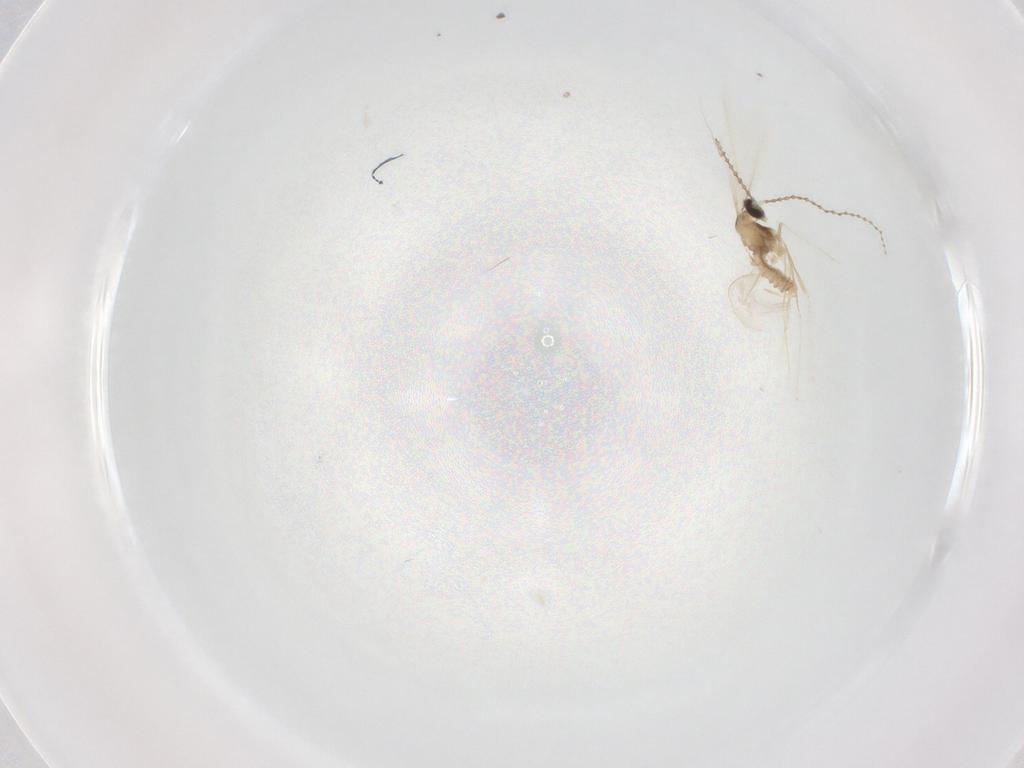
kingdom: Animalia
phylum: Arthropoda
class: Insecta
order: Diptera
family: Cecidomyiidae
